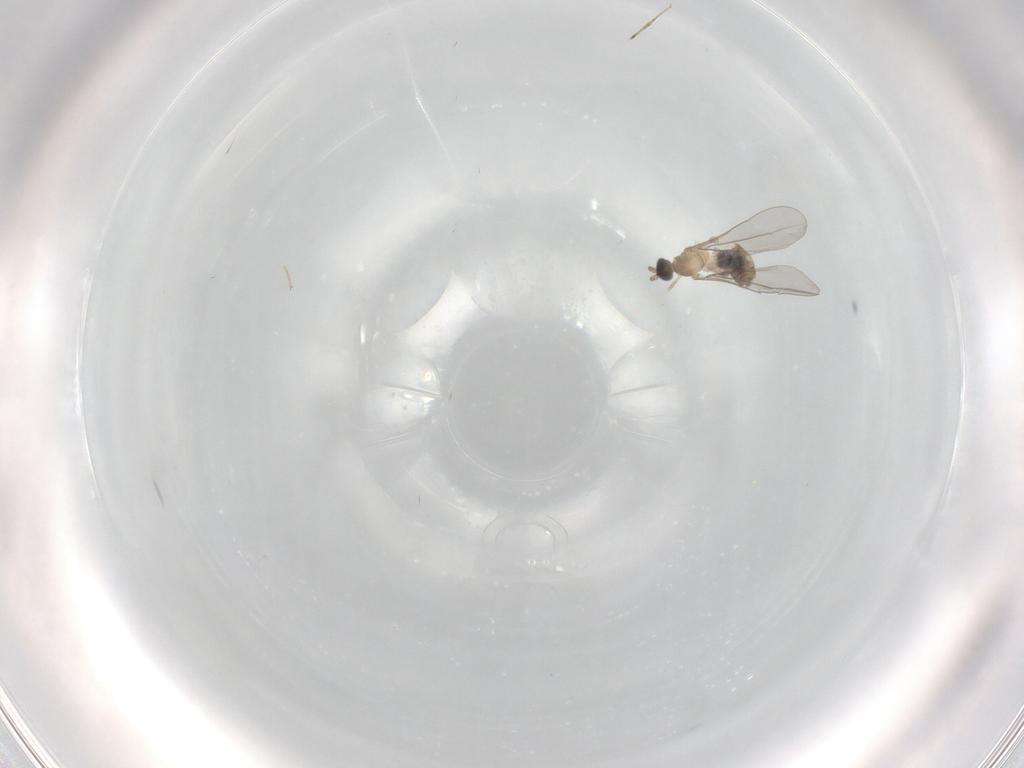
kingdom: Animalia
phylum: Arthropoda
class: Insecta
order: Diptera
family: Cecidomyiidae
